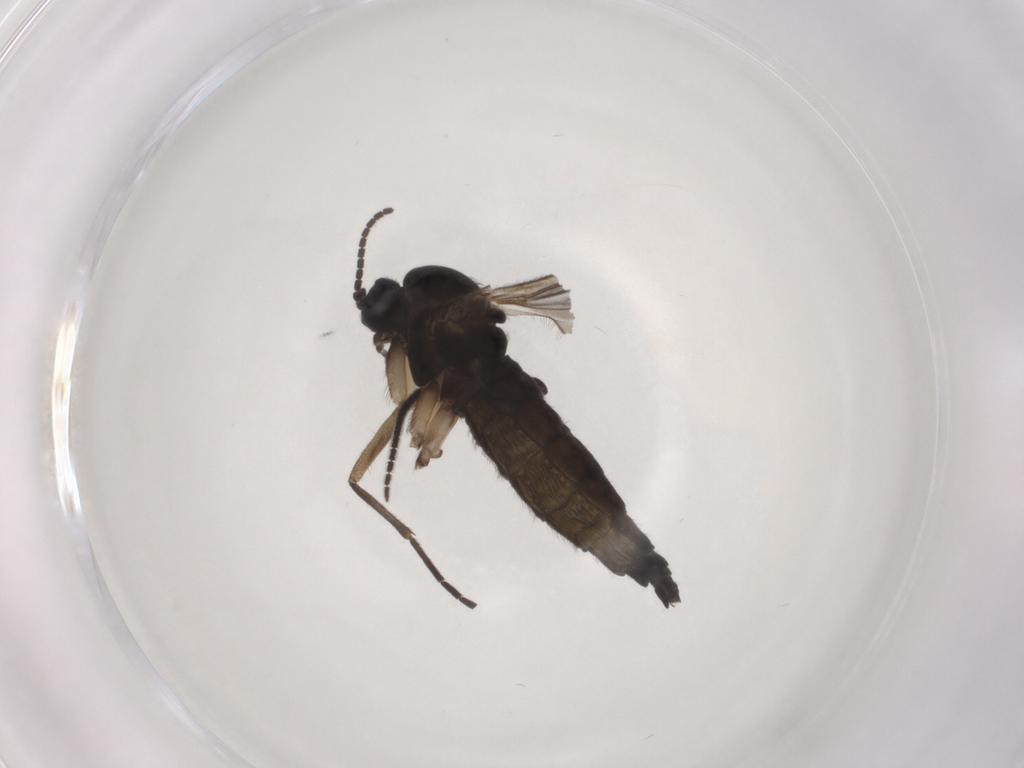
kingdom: Animalia
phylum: Arthropoda
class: Insecta
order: Diptera
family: Sciaridae
